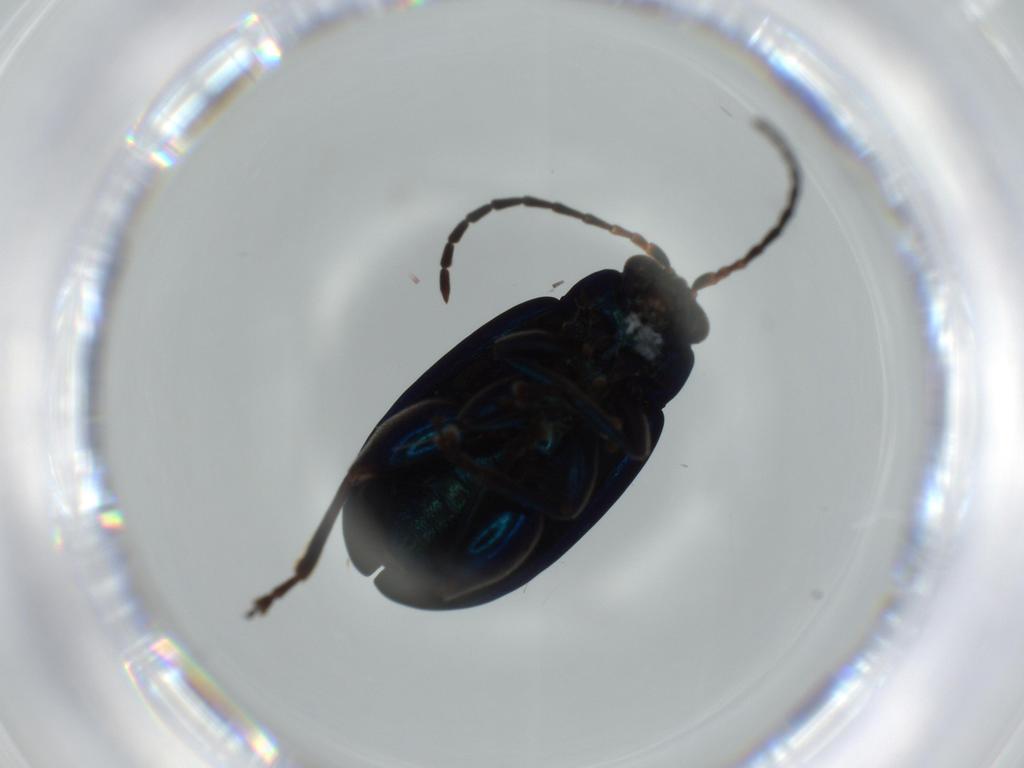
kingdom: Animalia
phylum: Arthropoda
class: Insecta
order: Coleoptera
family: Chrysomelidae
